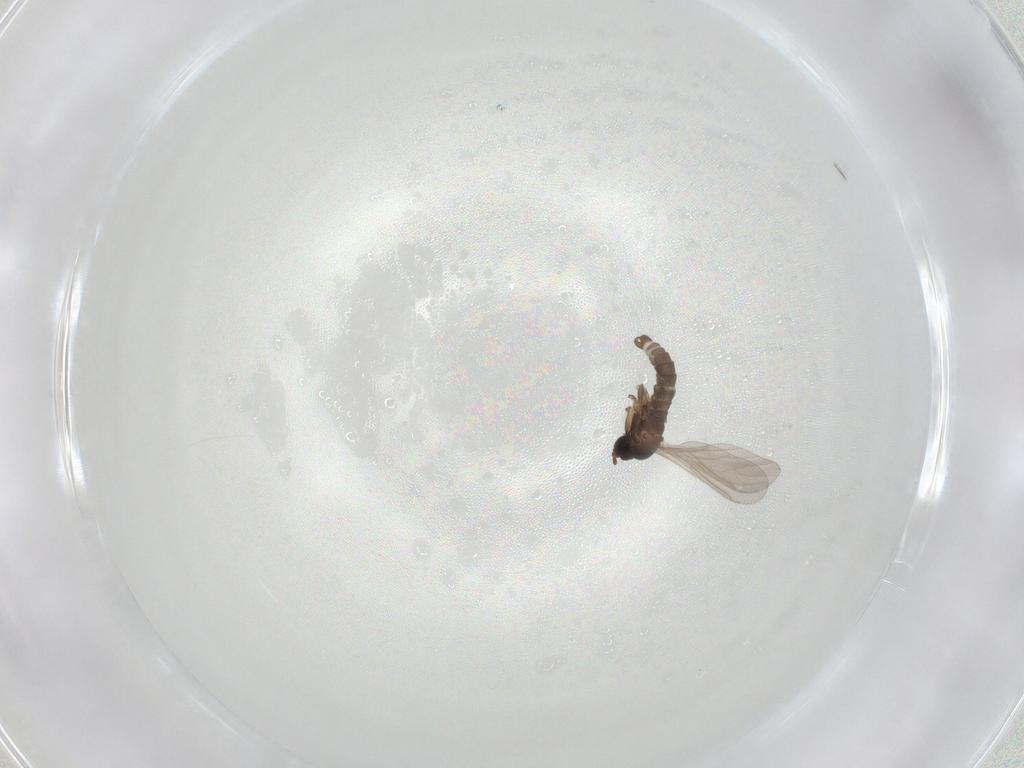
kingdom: Animalia
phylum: Arthropoda
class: Insecta
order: Diptera
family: Sciaridae
